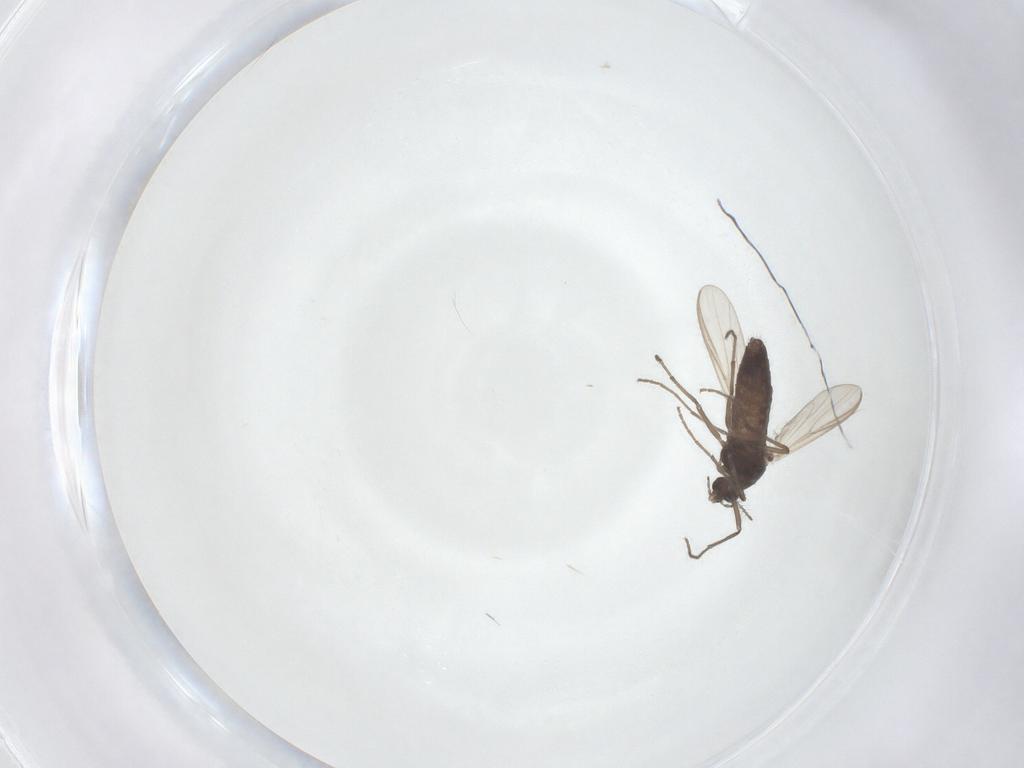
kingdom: Animalia
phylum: Arthropoda
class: Insecta
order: Diptera
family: Chironomidae
